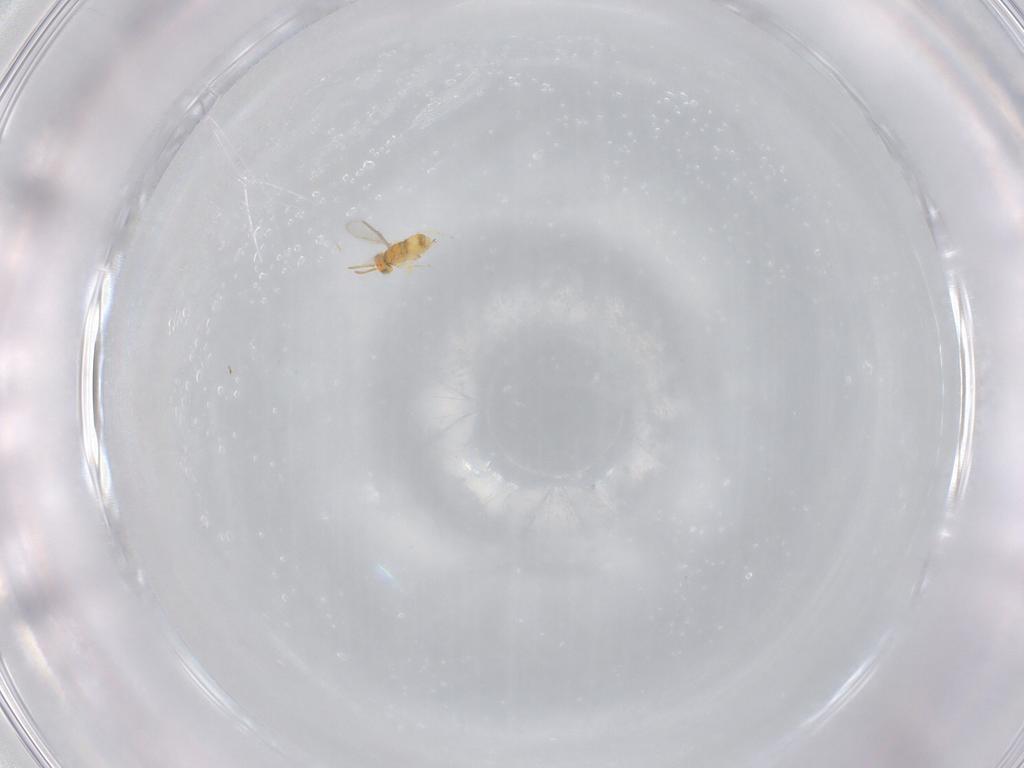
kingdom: Animalia
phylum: Arthropoda
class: Insecta
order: Hymenoptera
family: Aphelinidae
